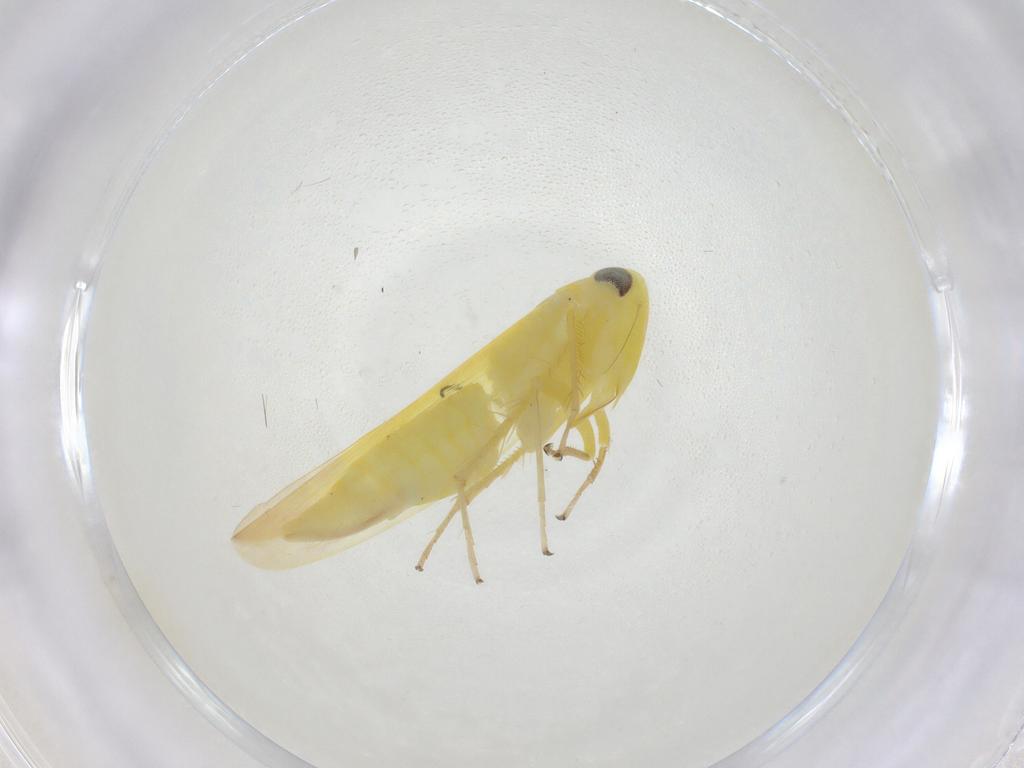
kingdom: Animalia
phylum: Arthropoda
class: Insecta
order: Hemiptera
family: Cicadellidae
